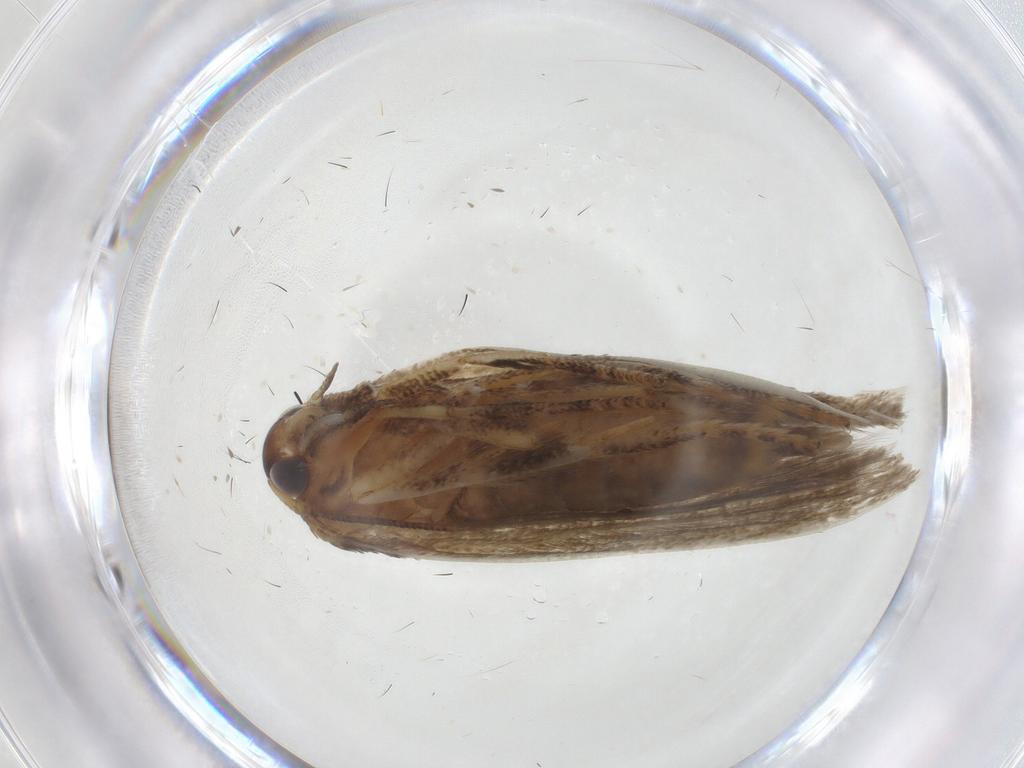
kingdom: Animalia
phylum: Arthropoda
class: Insecta
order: Lepidoptera
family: Blastobasidae
